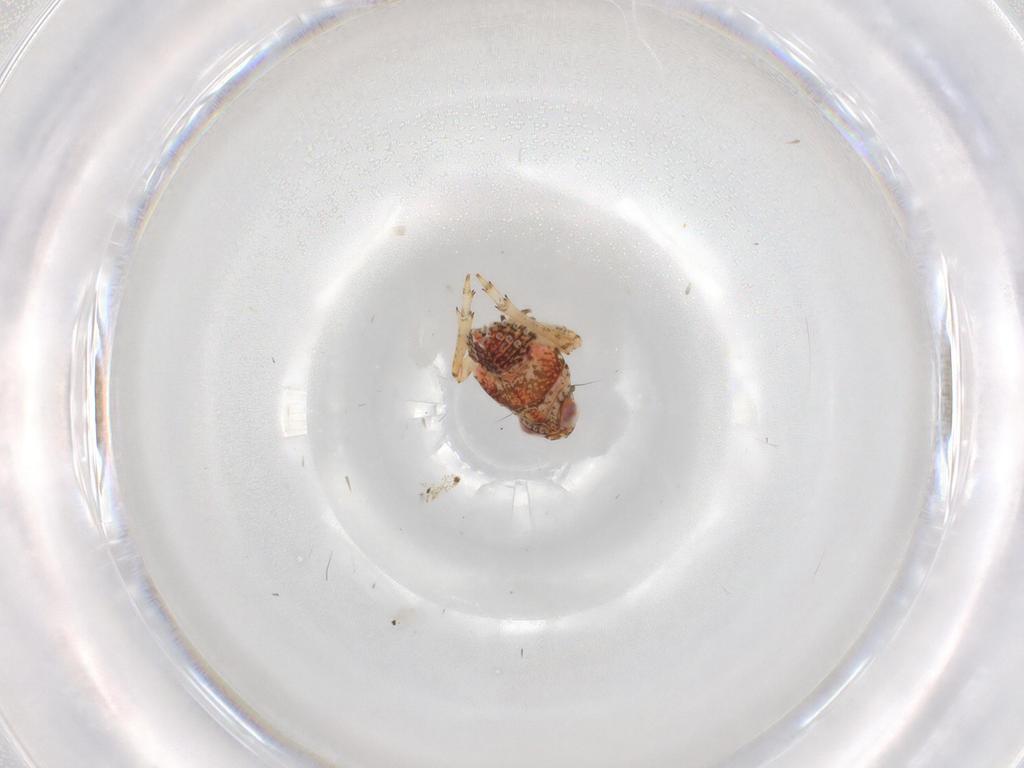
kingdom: Animalia
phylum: Arthropoda
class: Insecta
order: Hemiptera
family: Issidae
